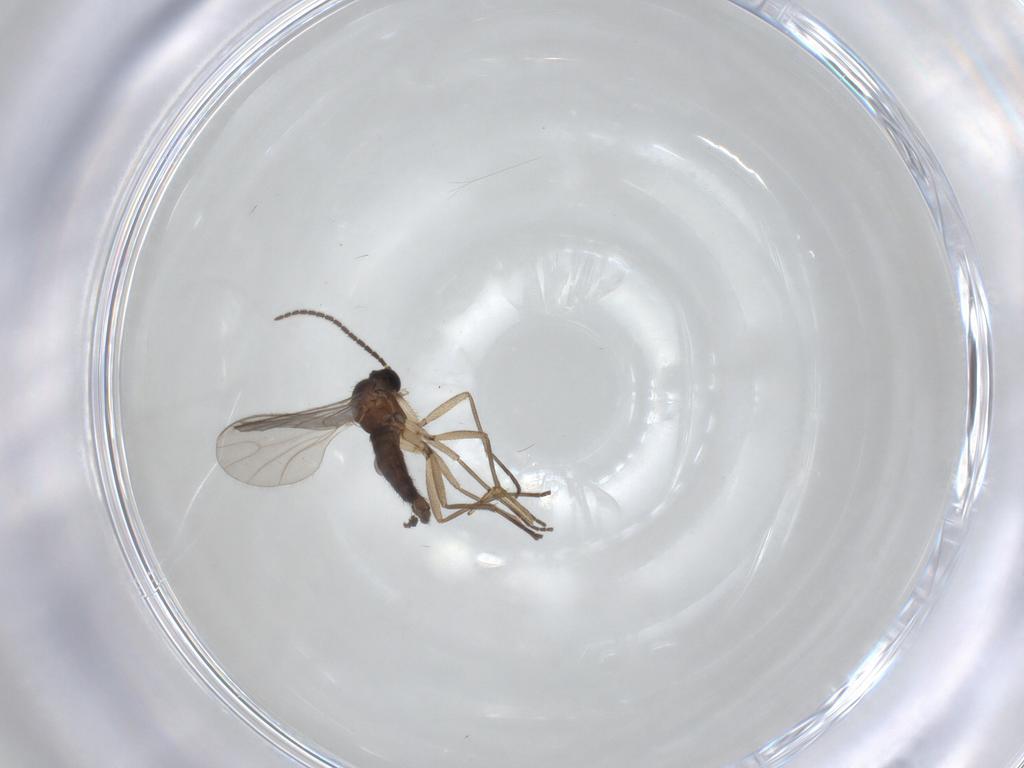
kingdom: Animalia
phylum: Arthropoda
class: Insecta
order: Diptera
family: Sciaridae
